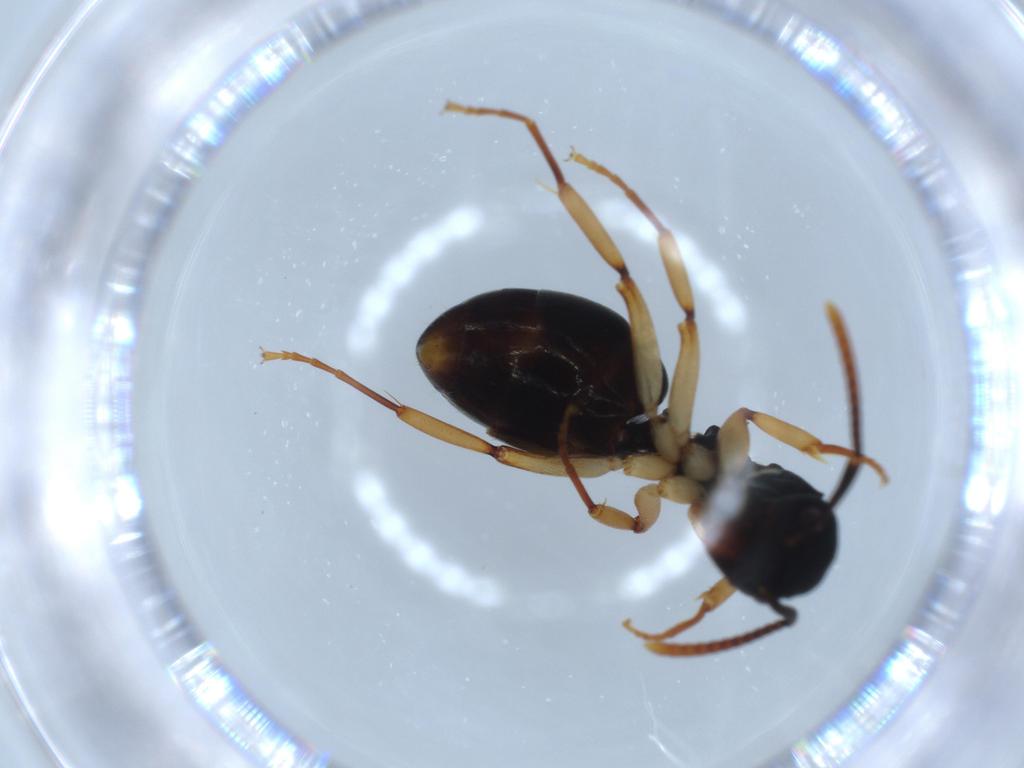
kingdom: Animalia
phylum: Arthropoda
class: Insecta
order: Hymenoptera
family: Formicidae
